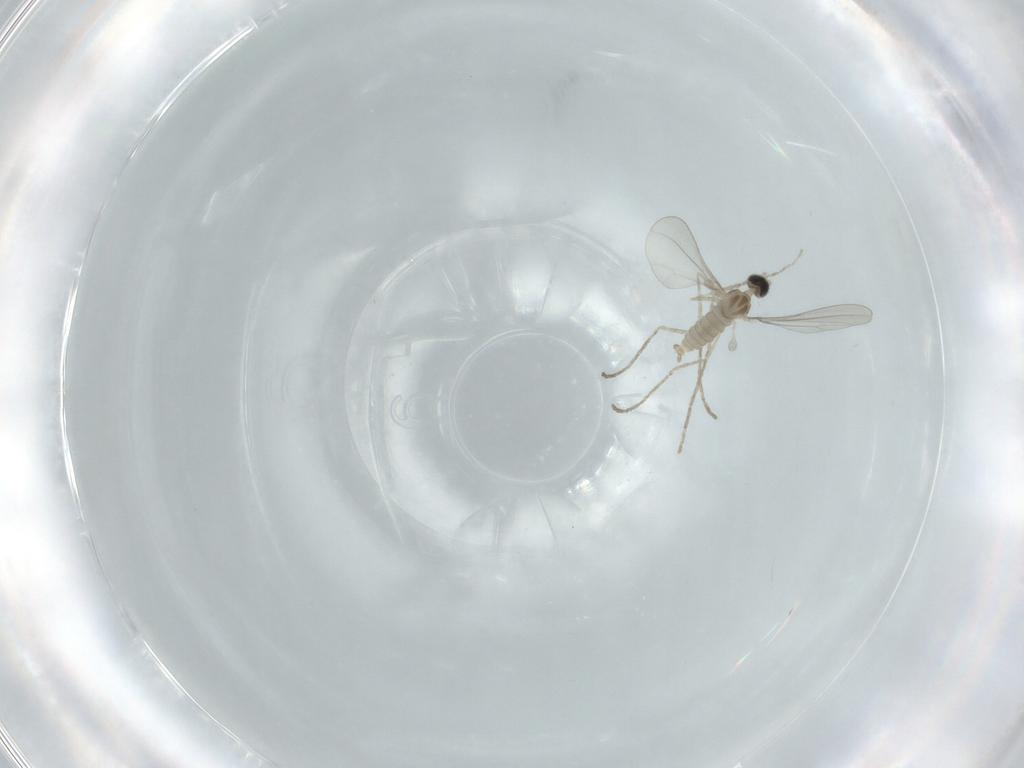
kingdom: Animalia
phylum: Arthropoda
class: Insecta
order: Diptera
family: Cecidomyiidae
